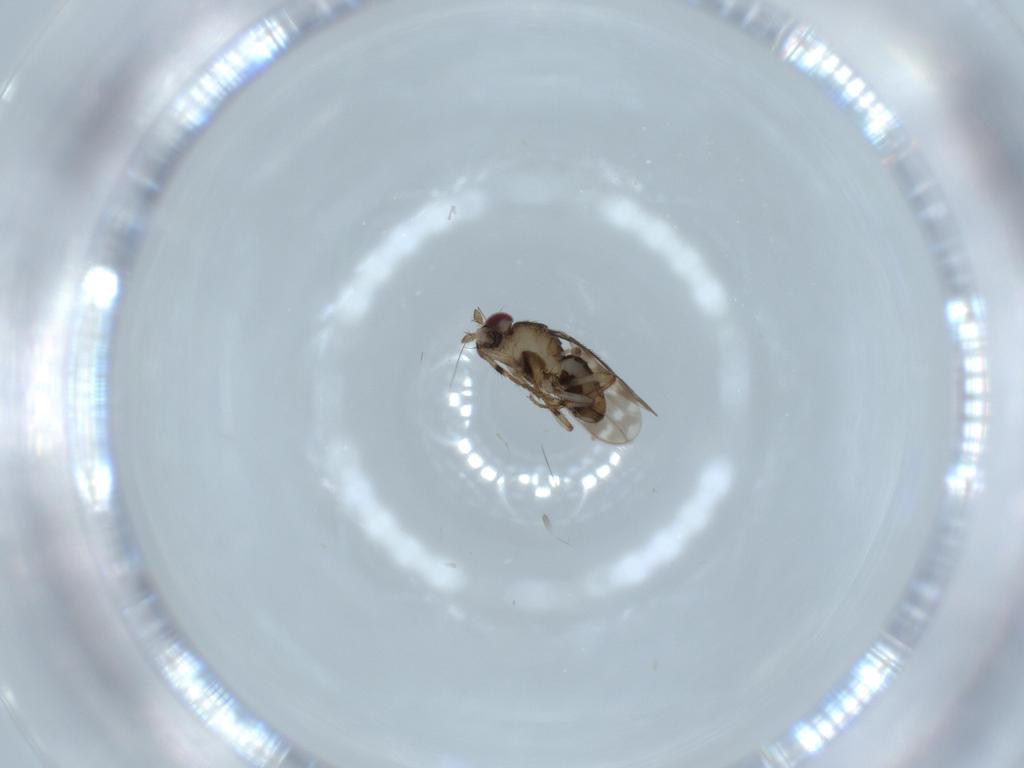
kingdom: Animalia
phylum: Arthropoda
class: Insecta
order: Diptera
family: Sphaeroceridae
